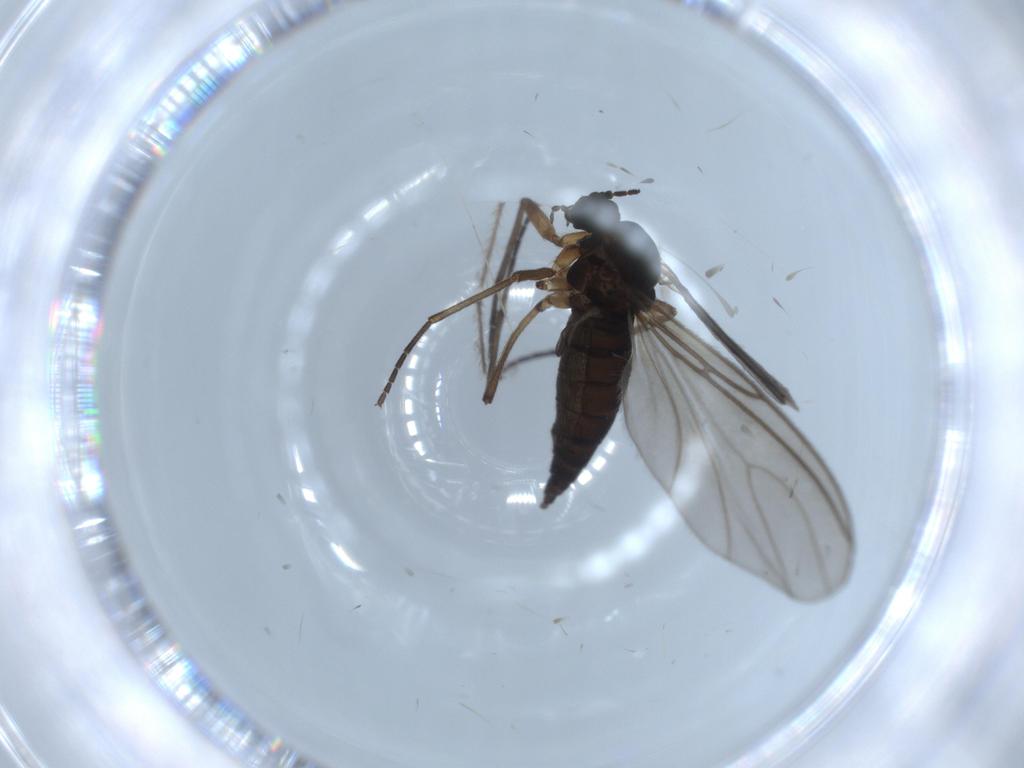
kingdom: Animalia
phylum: Arthropoda
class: Insecta
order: Diptera
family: Sciaridae
